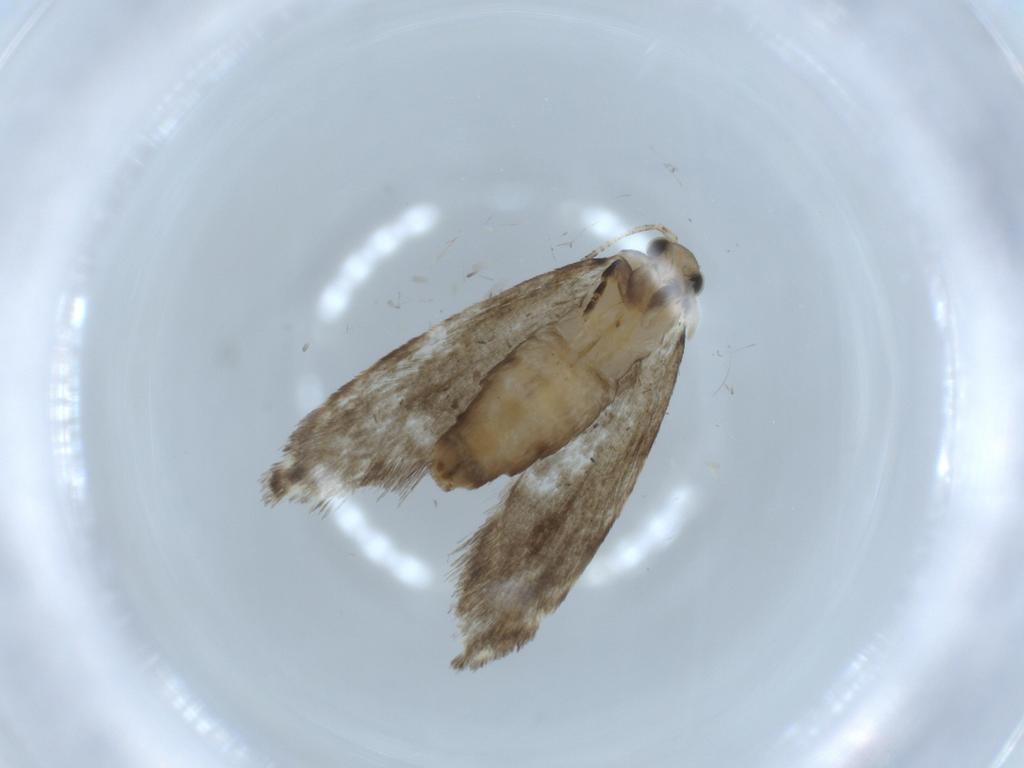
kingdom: Animalia
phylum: Arthropoda
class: Insecta
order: Lepidoptera
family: Tineidae
